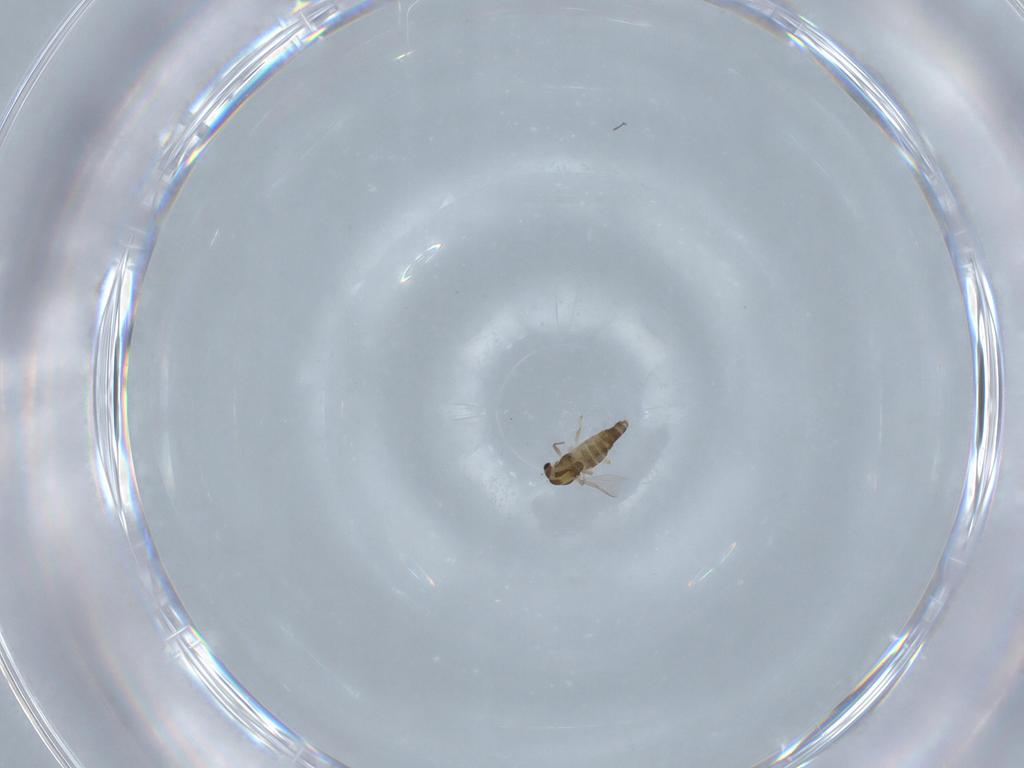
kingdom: Animalia
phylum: Arthropoda
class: Insecta
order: Diptera
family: Chironomidae
